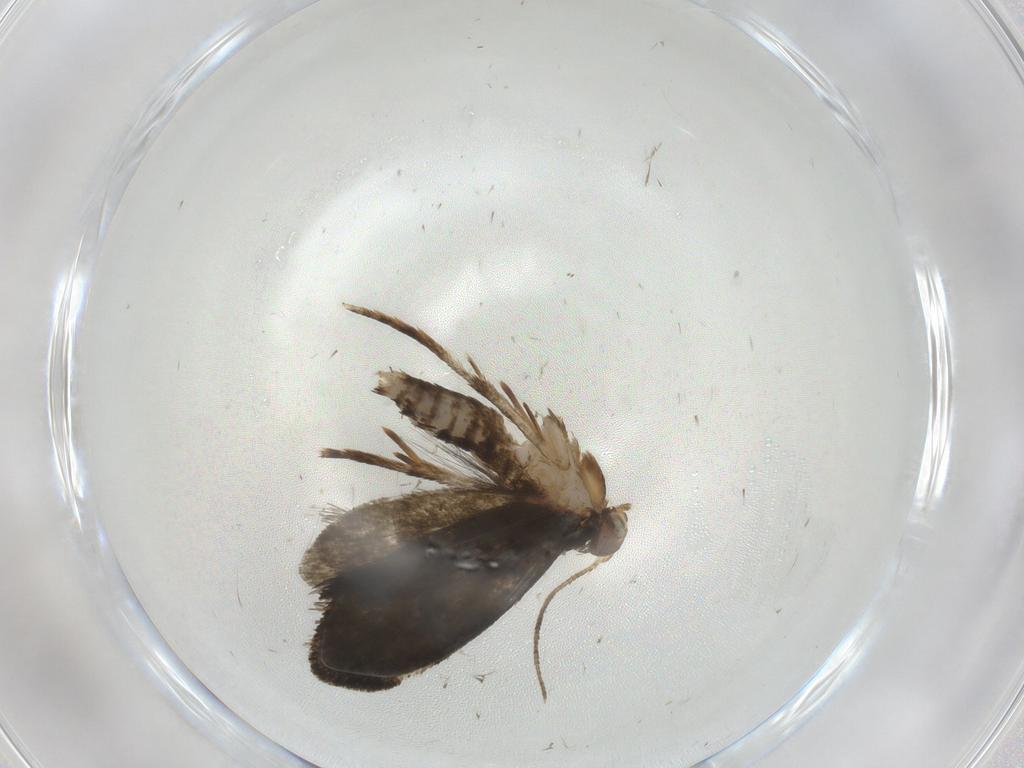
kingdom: Animalia
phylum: Arthropoda
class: Insecta
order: Lepidoptera
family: Tineidae
